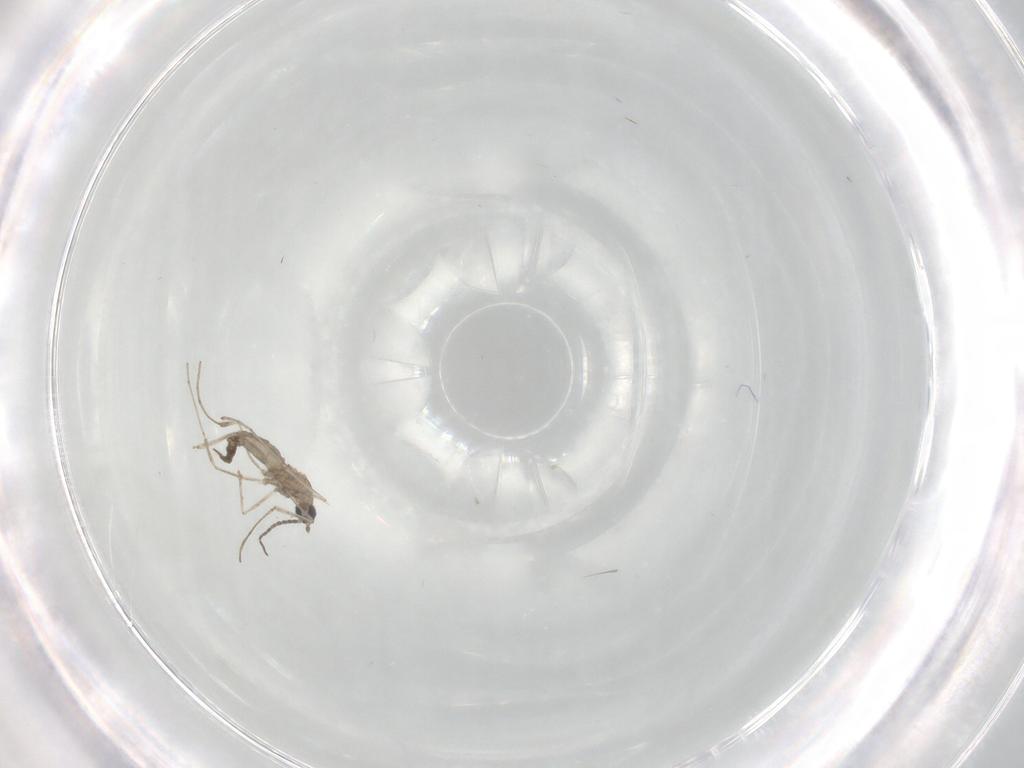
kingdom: Animalia
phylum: Arthropoda
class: Insecta
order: Diptera
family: Cecidomyiidae
